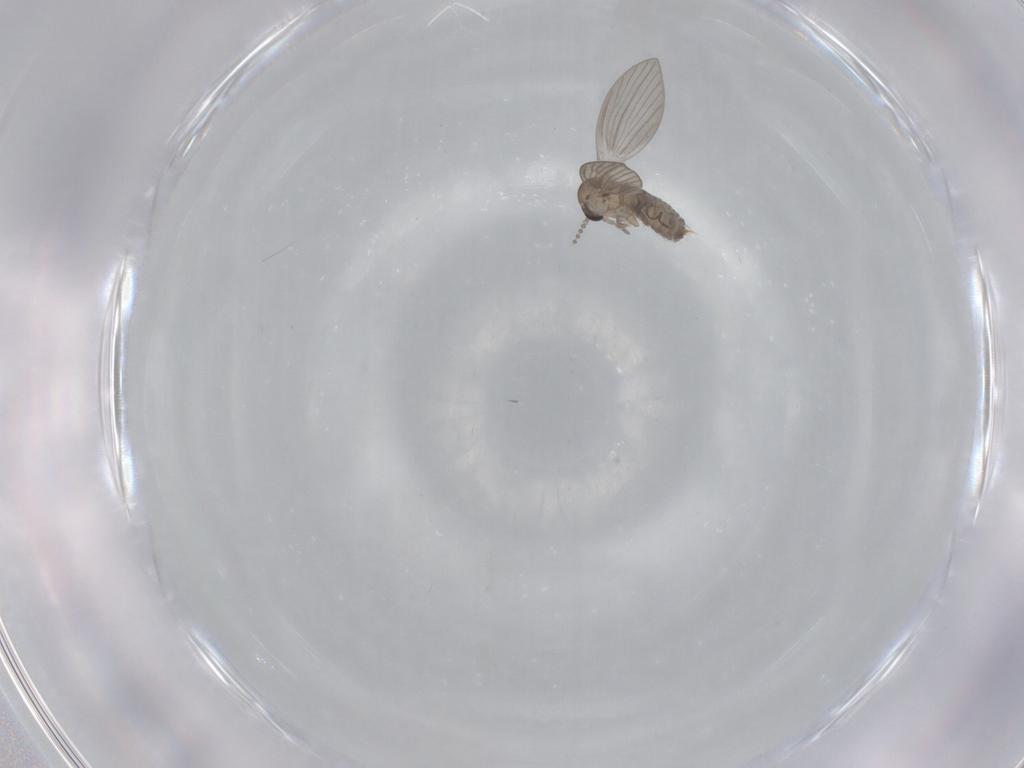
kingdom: Animalia
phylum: Arthropoda
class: Insecta
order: Diptera
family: Psychodidae
